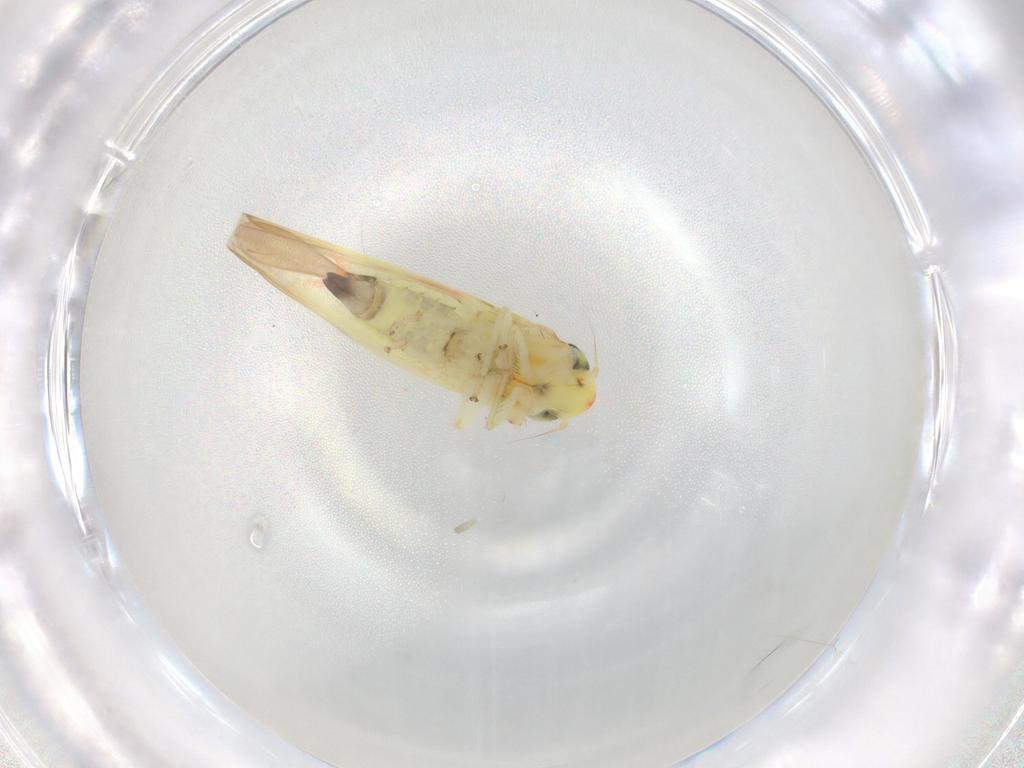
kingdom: Animalia
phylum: Arthropoda
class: Insecta
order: Hemiptera
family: Cicadellidae
